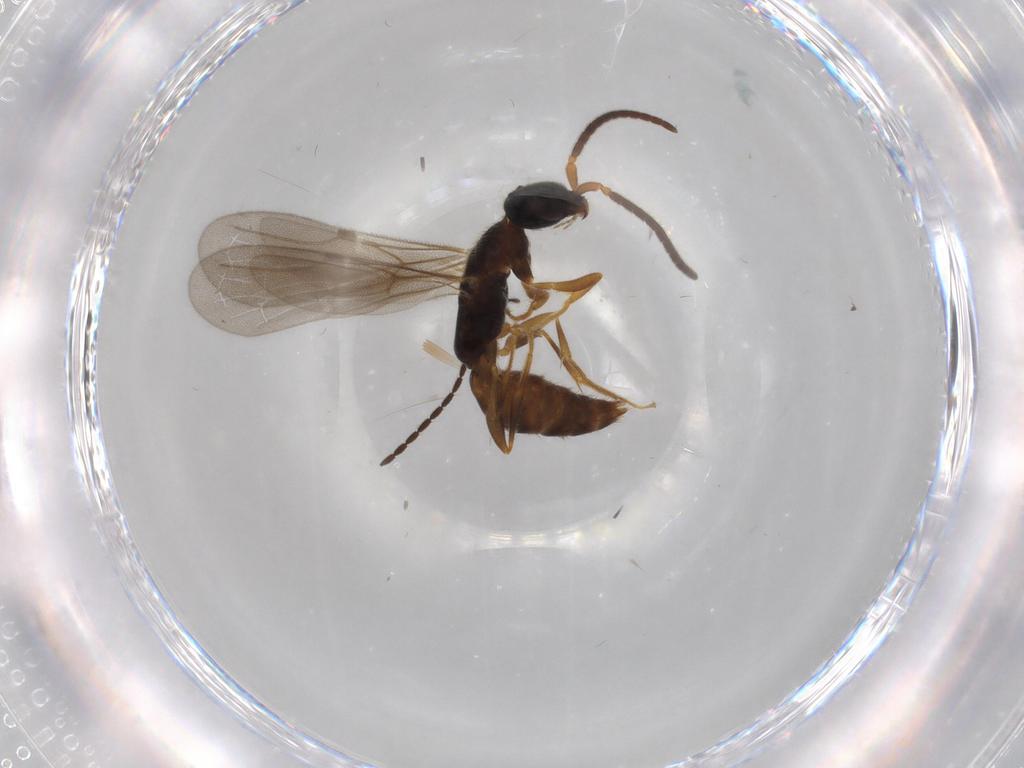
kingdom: Animalia
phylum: Arthropoda
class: Insecta
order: Hymenoptera
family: Bethylidae
